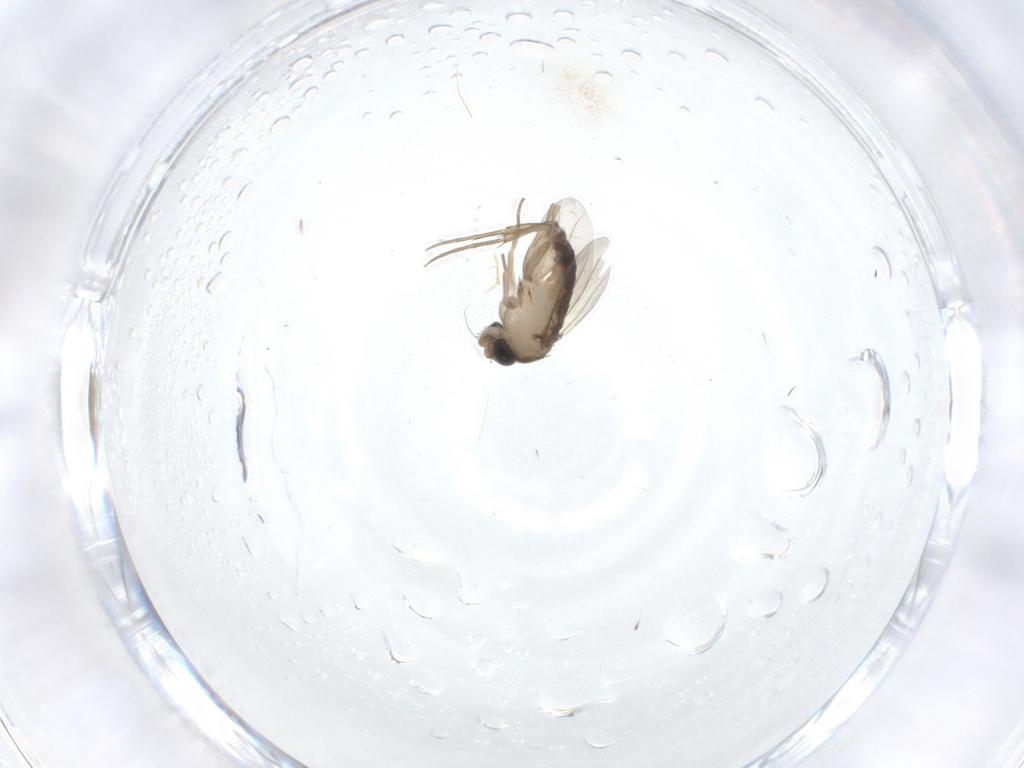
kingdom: Animalia
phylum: Arthropoda
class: Insecta
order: Diptera
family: Phoridae
